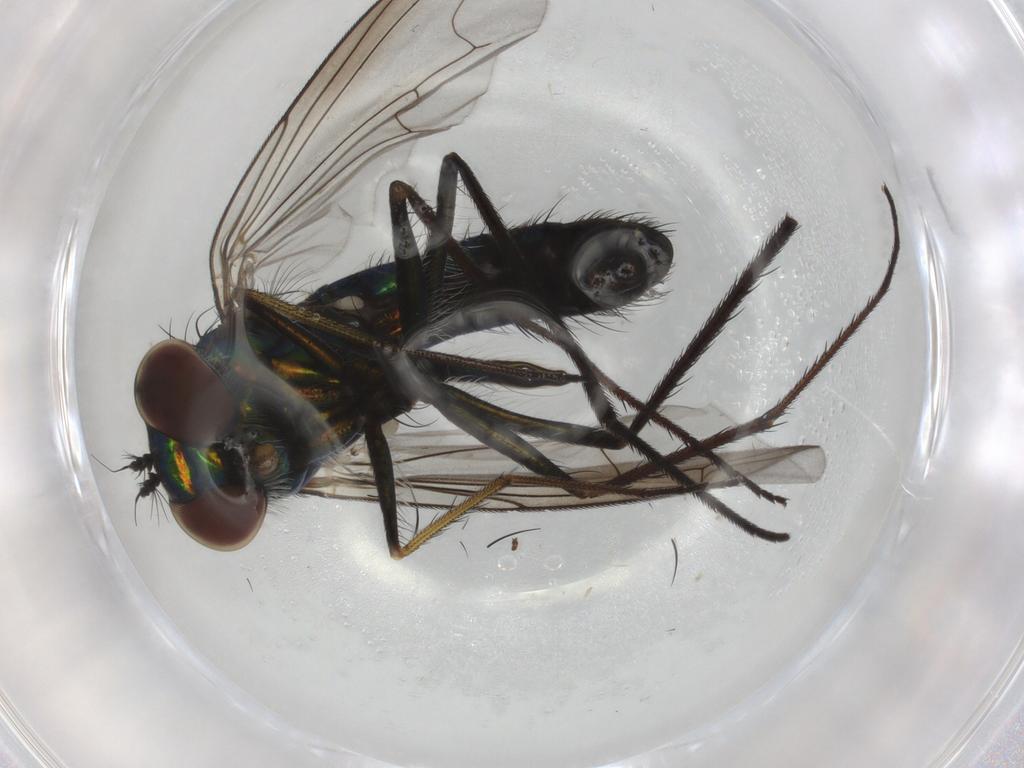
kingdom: Animalia
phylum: Arthropoda
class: Insecta
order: Diptera
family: Dolichopodidae
